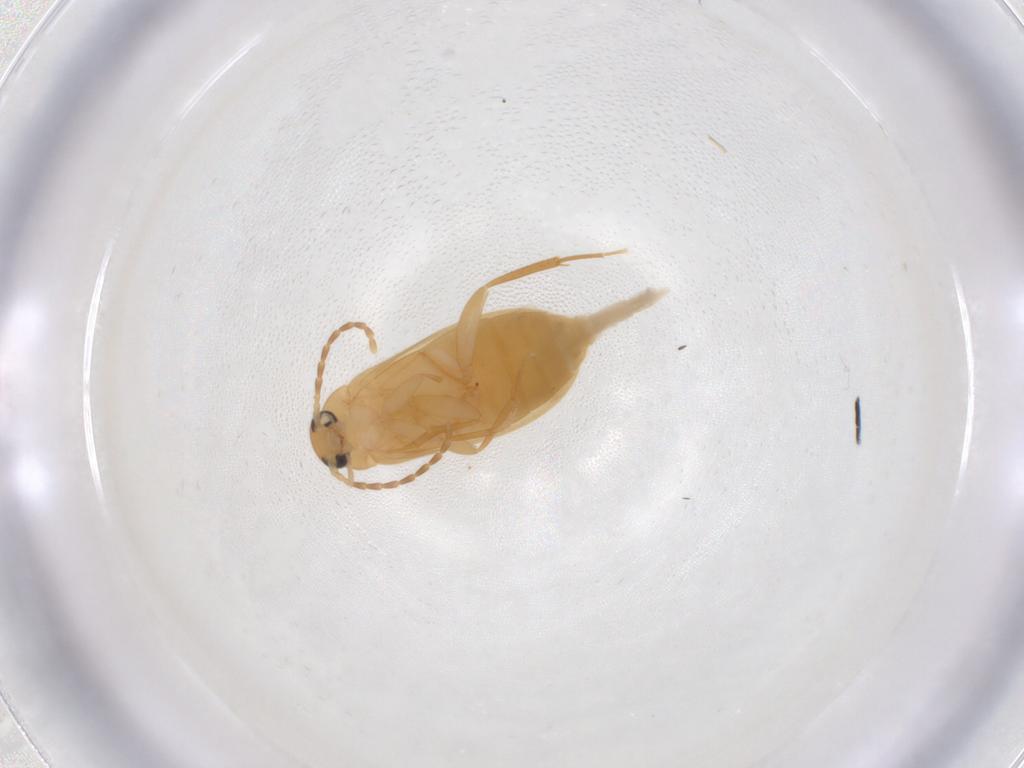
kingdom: Animalia
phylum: Arthropoda
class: Insecta
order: Coleoptera
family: Scraptiidae
